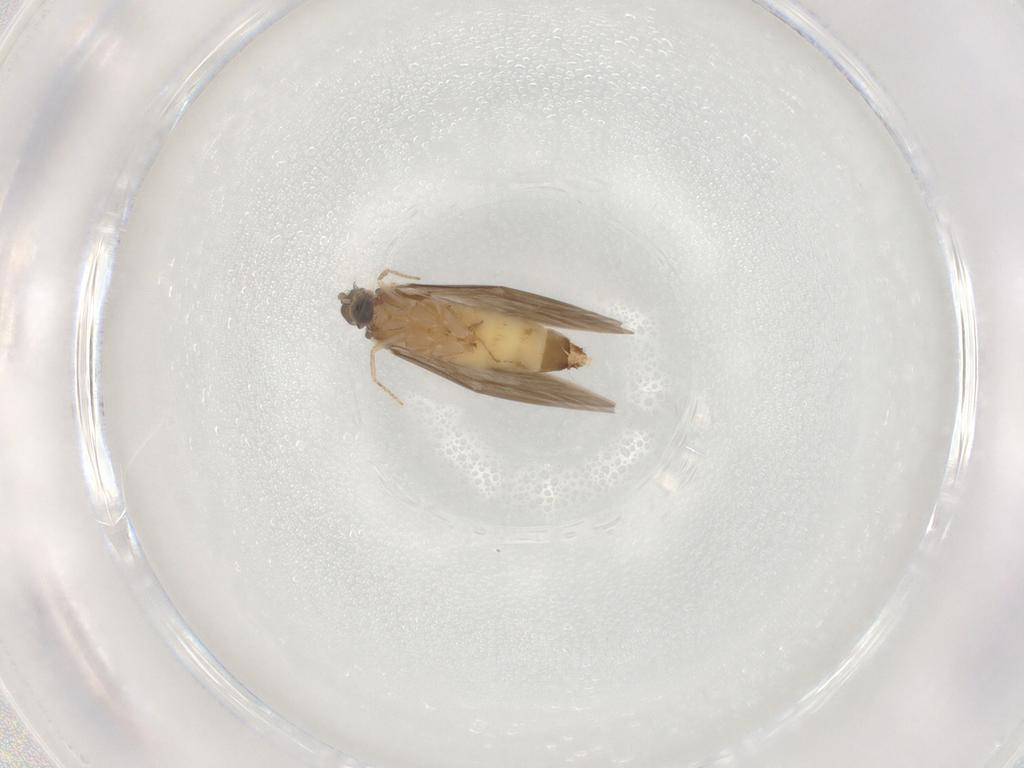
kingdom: Animalia
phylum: Arthropoda
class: Insecta
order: Trichoptera
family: Hydroptilidae
